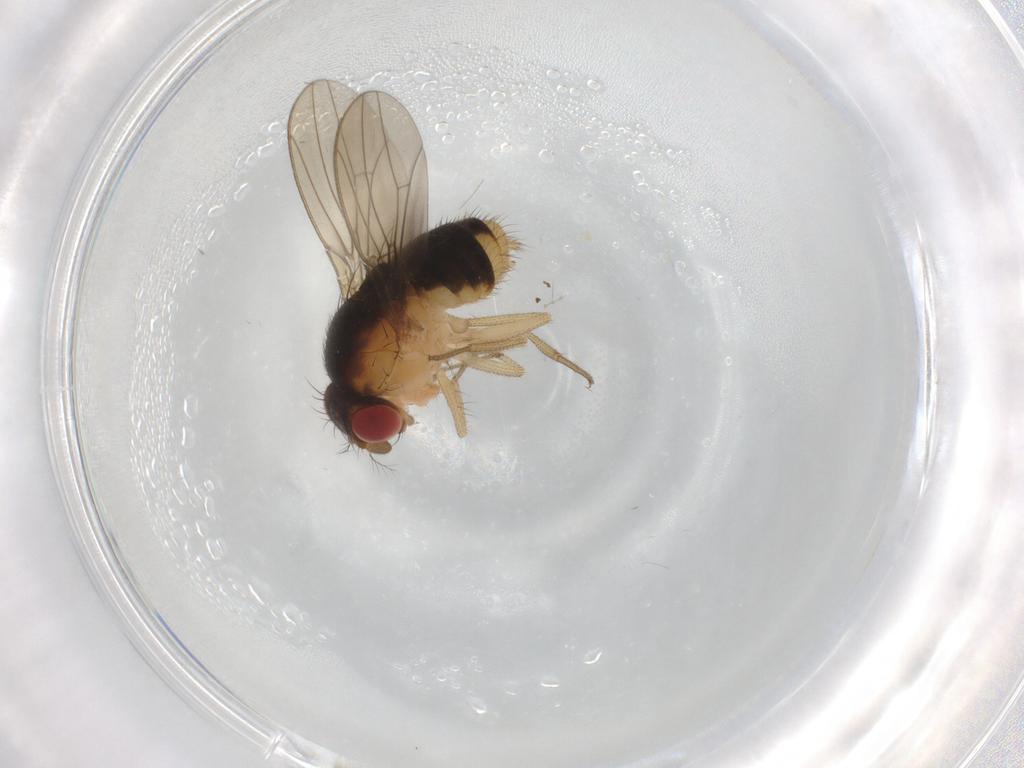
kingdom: Animalia
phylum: Arthropoda
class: Insecta
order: Diptera
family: Drosophilidae
